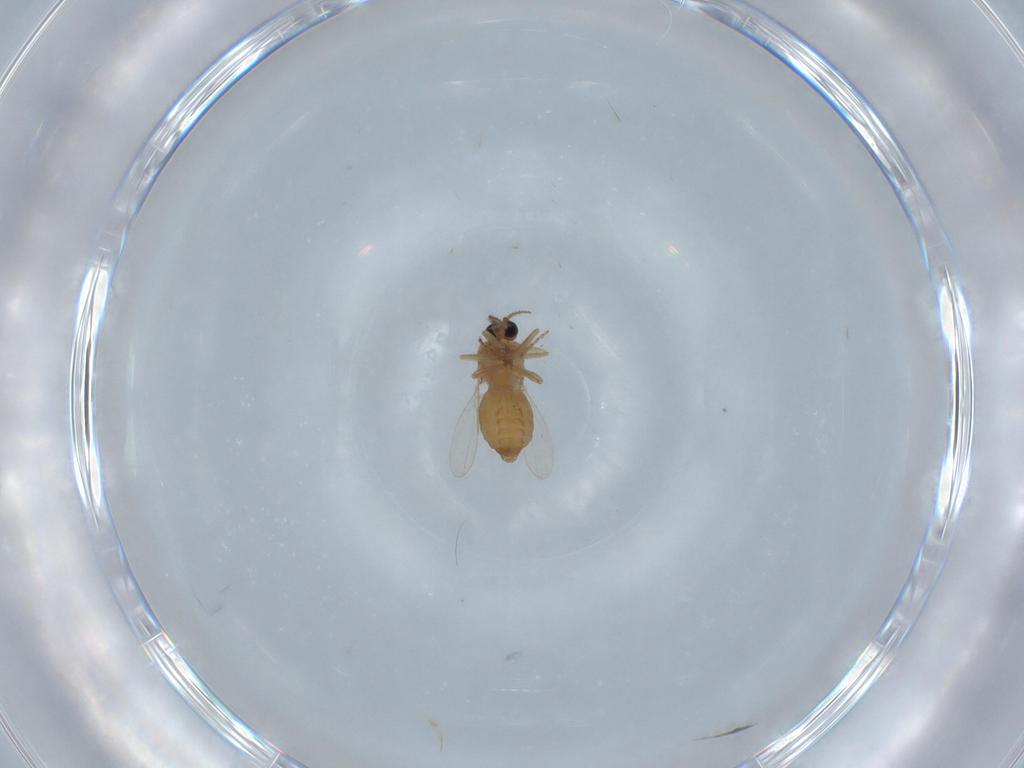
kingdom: Animalia
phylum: Arthropoda
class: Insecta
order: Diptera
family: Ceratopogonidae
